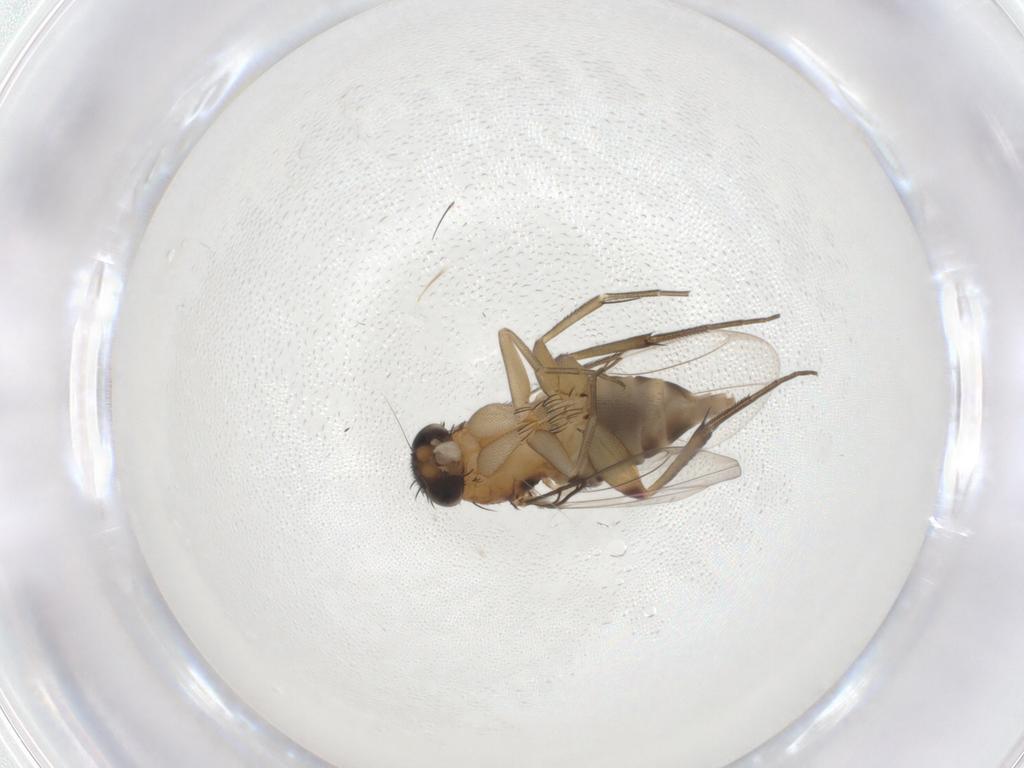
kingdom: Animalia
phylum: Arthropoda
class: Insecta
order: Diptera
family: Phoridae
